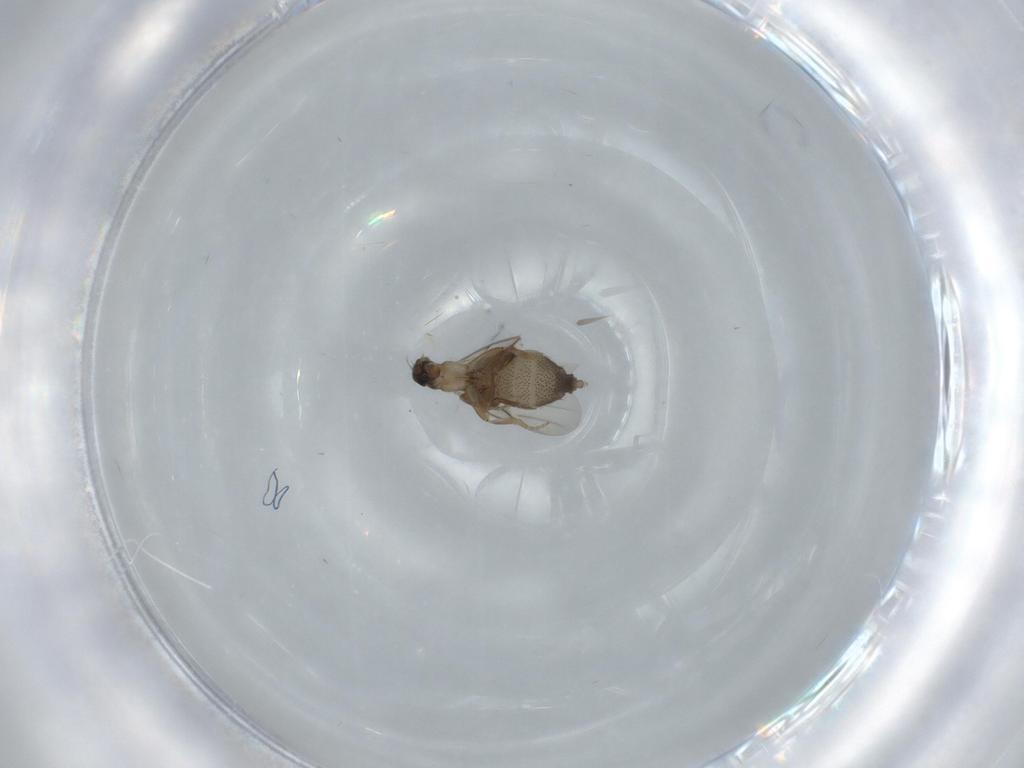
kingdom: Animalia
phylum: Arthropoda
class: Insecta
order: Diptera
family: Phoridae
